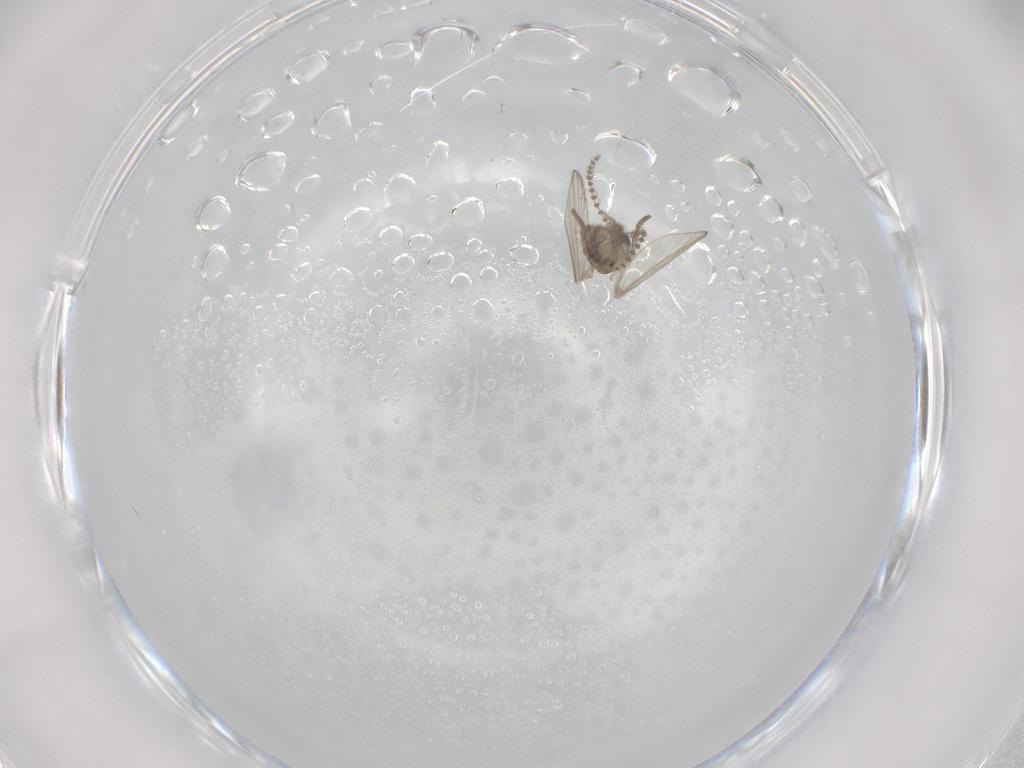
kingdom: Animalia
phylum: Arthropoda
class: Insecta
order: Diptera
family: Psychodidae
